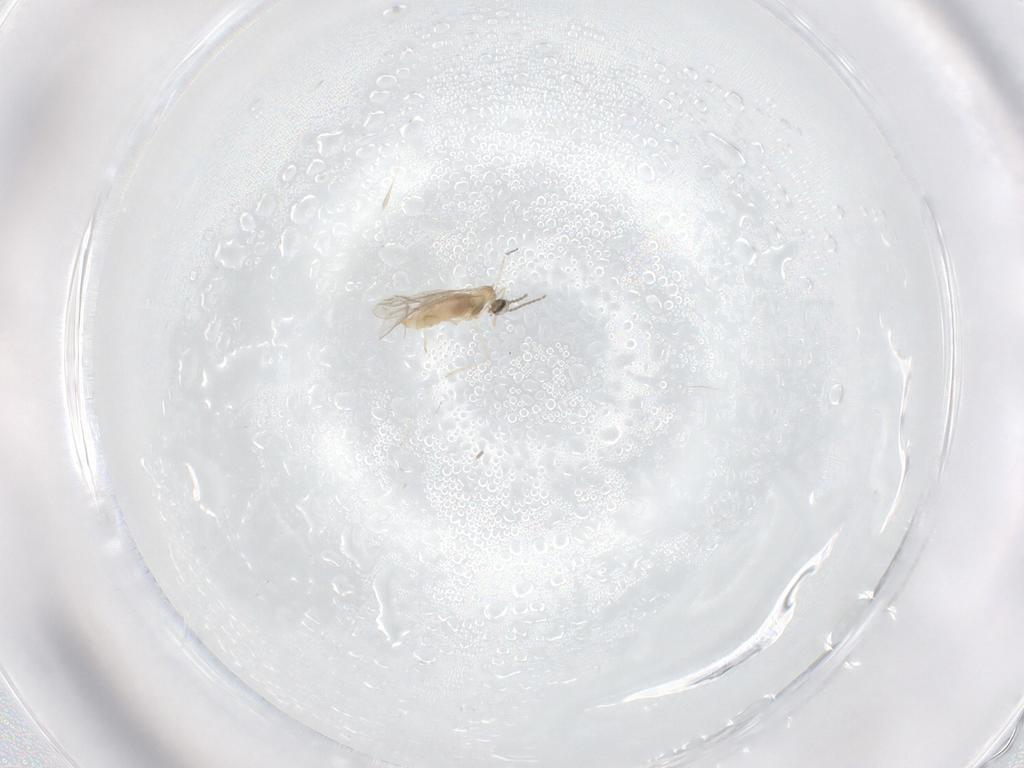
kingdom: Animalia
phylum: Arthropoda
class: Insecta
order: Diptera
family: Cecidomyiidae
